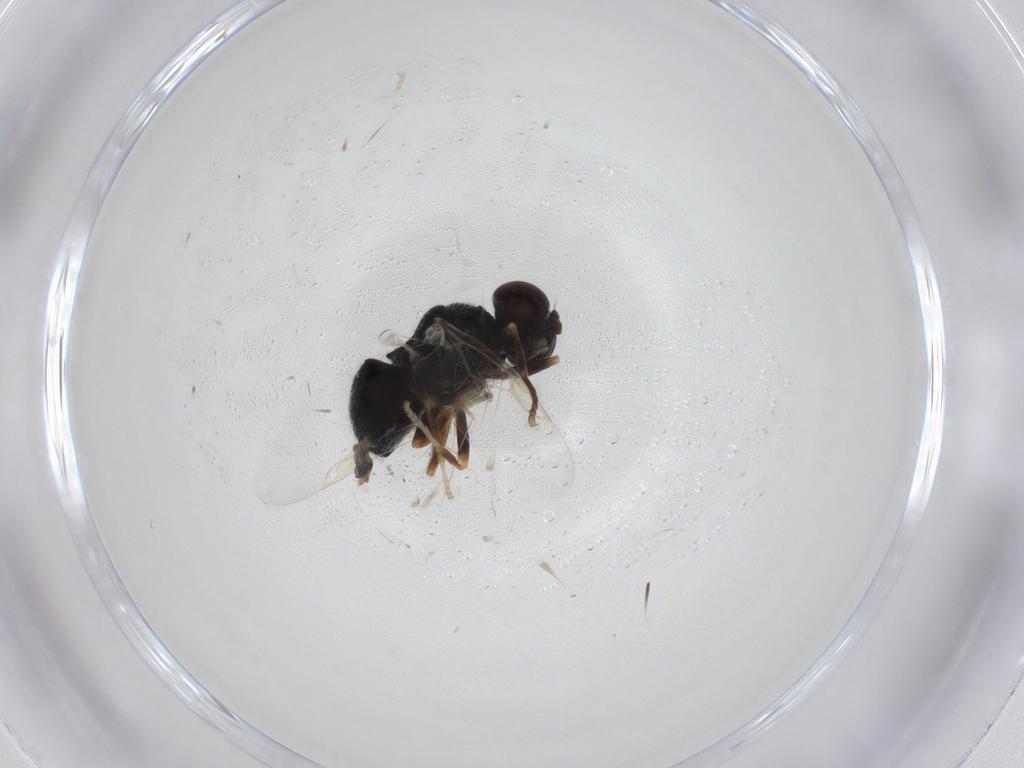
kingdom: Animalia
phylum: Arthropoda
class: Insecta
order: Diptera
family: Stratiomyidae
